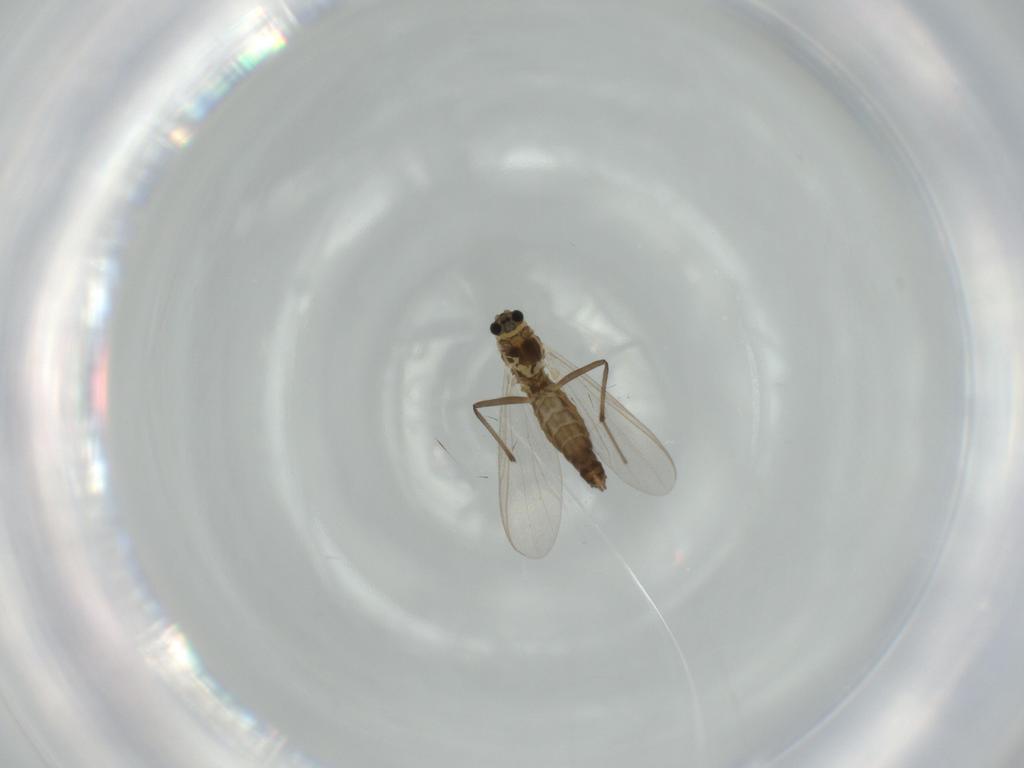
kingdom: Animalia
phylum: Arthropoda
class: Insecta
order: Diptera
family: Chironomidae
